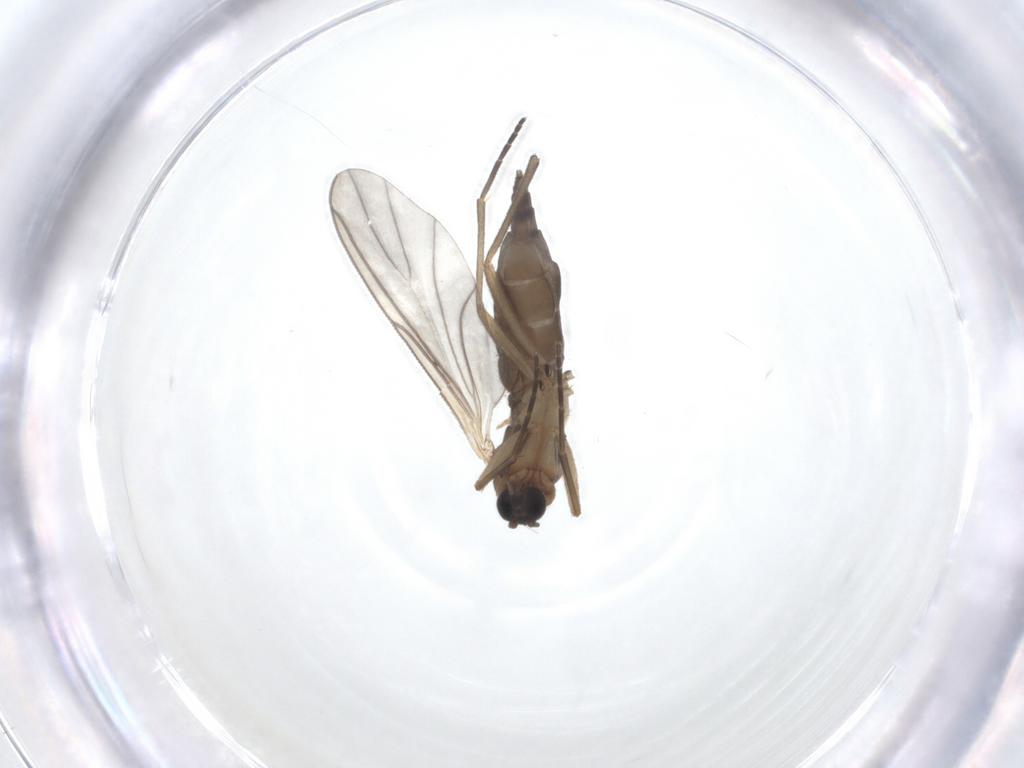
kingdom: Animalia
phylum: Arthropoda
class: Insecta
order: Diptera
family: Sciaridae
